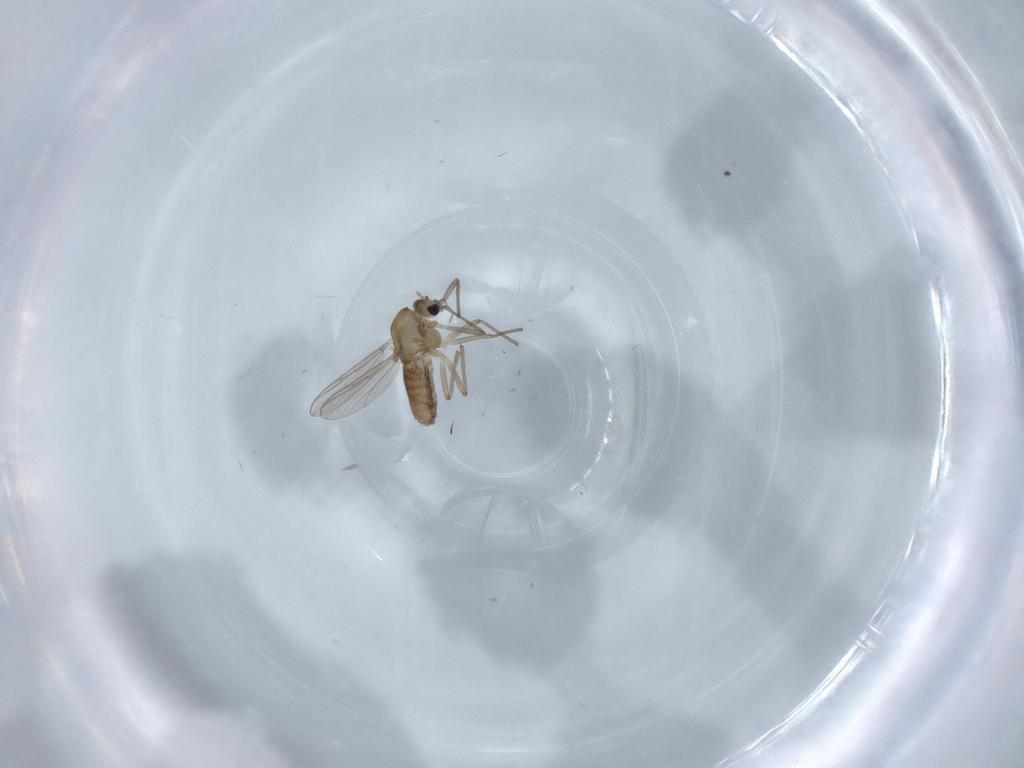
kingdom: Animalia
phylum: Arthropoda
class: Insecta
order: Diptera
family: Chironomidae
